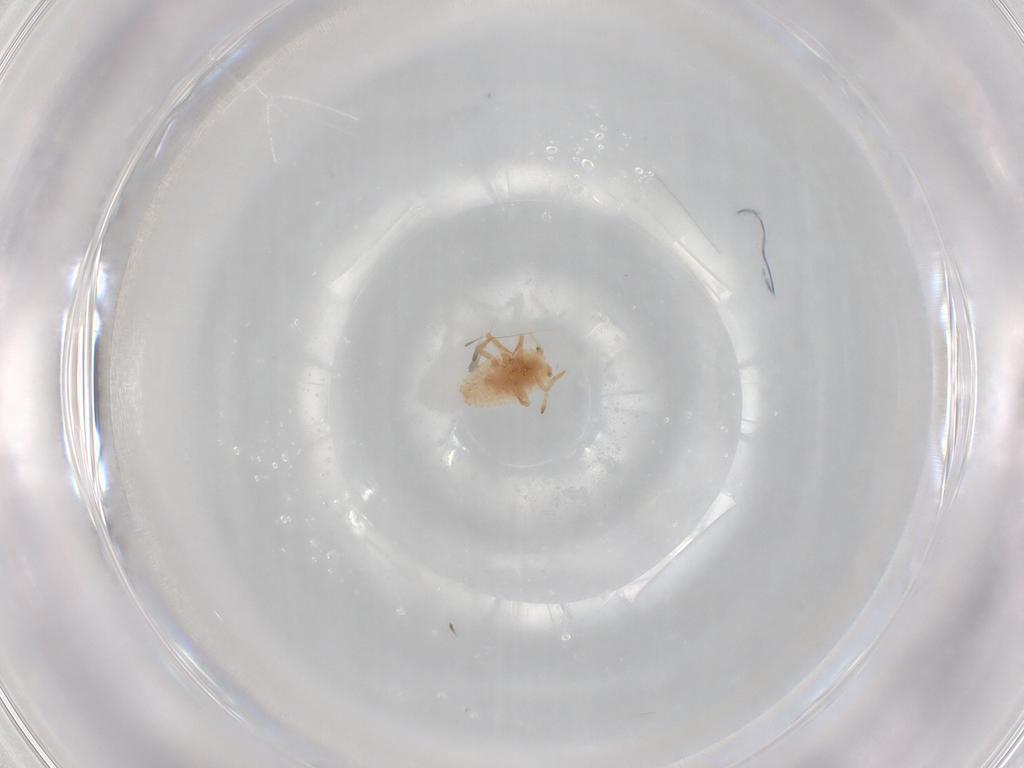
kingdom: Animalia
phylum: Arthropoda
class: Insecta
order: Hemiptera
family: Coccoidea_incertae_sedis
